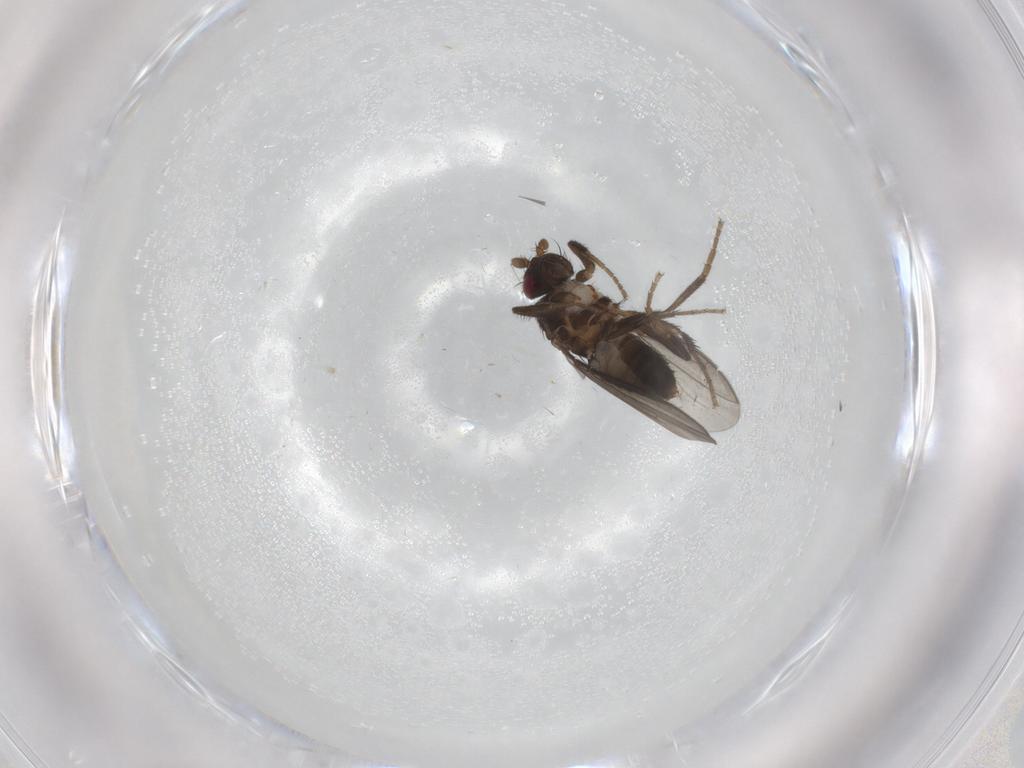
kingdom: Animalia
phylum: Arthropoda
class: Insecta
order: Diptera
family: Sphaeroceridae
